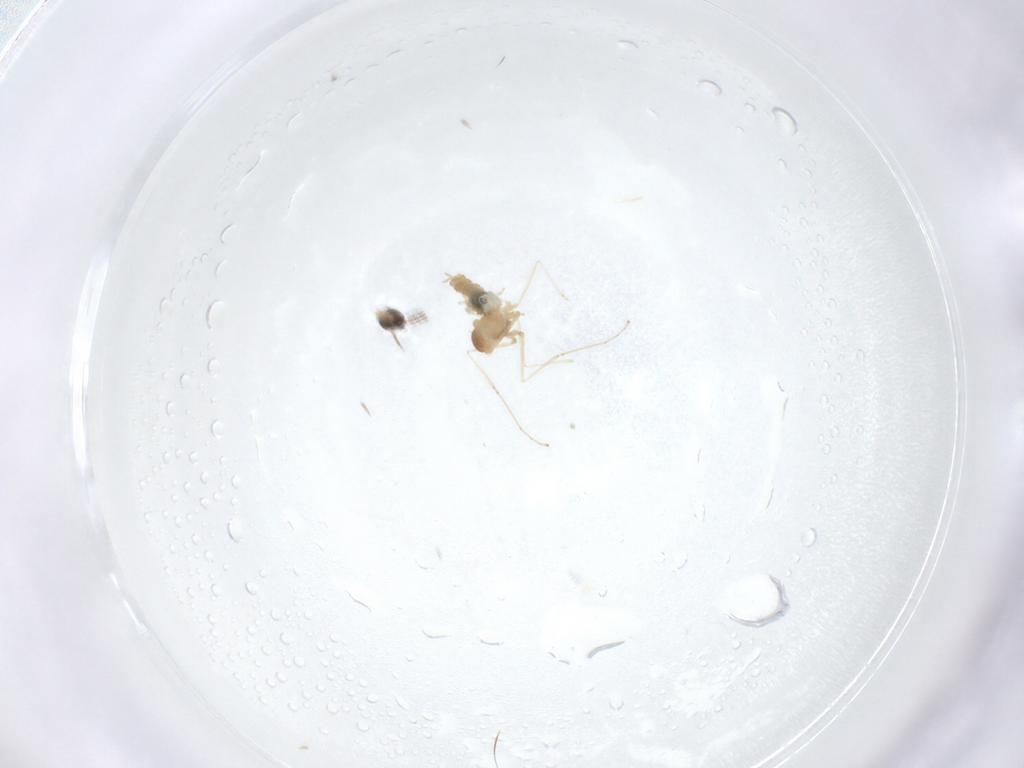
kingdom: Animalia
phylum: Arthropoda
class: Insecta
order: Diptera
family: Cecidomyiidae
